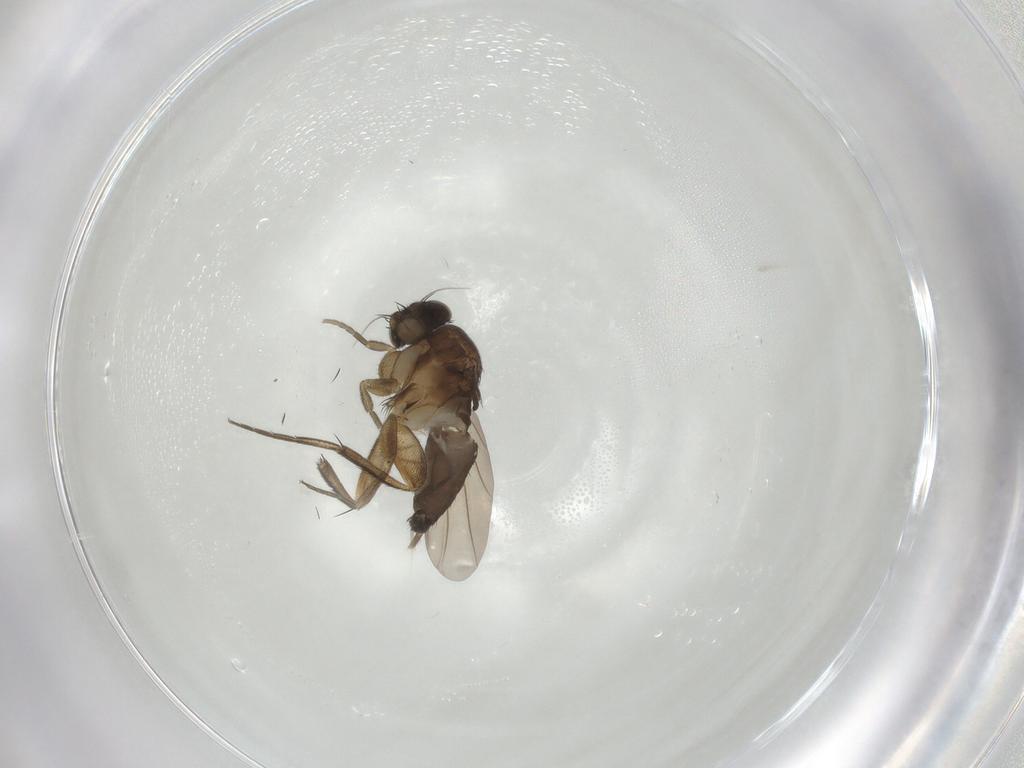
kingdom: Animalia
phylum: Arthropoda
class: Insecta
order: Diptera
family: Phoridae
